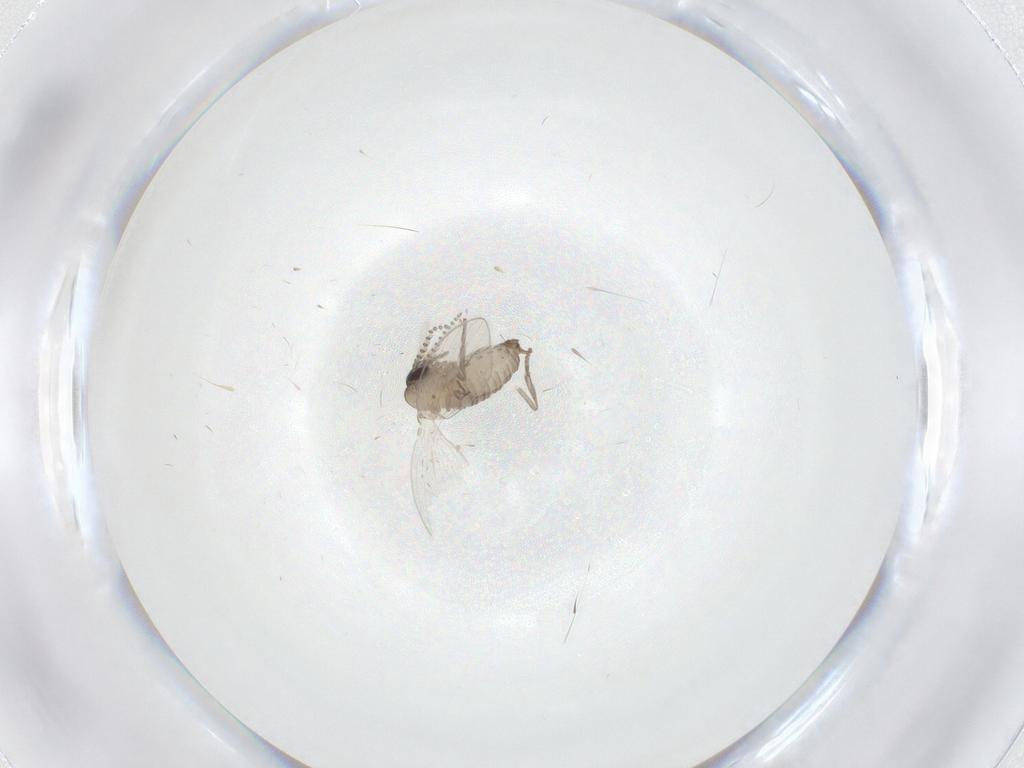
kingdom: Animalia
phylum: Arthropoda
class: Insecta
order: Diptera
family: Psychodidae
